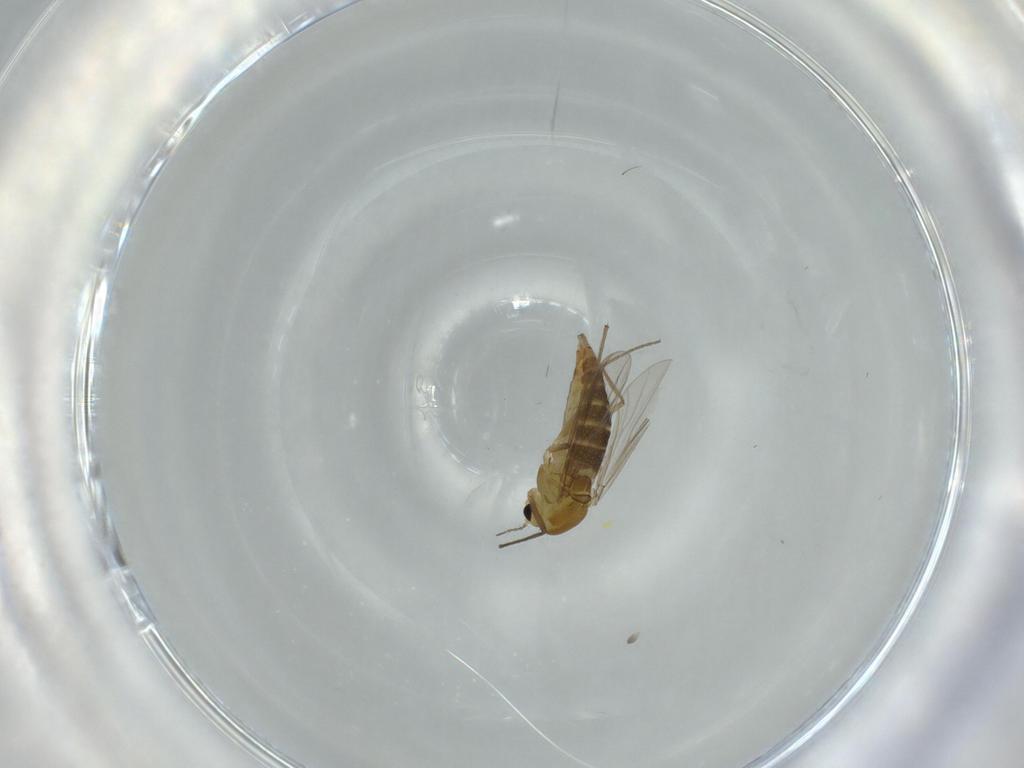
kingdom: Animalia
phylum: Arthropoda
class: Insecta
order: Diptera
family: Chironomidae
